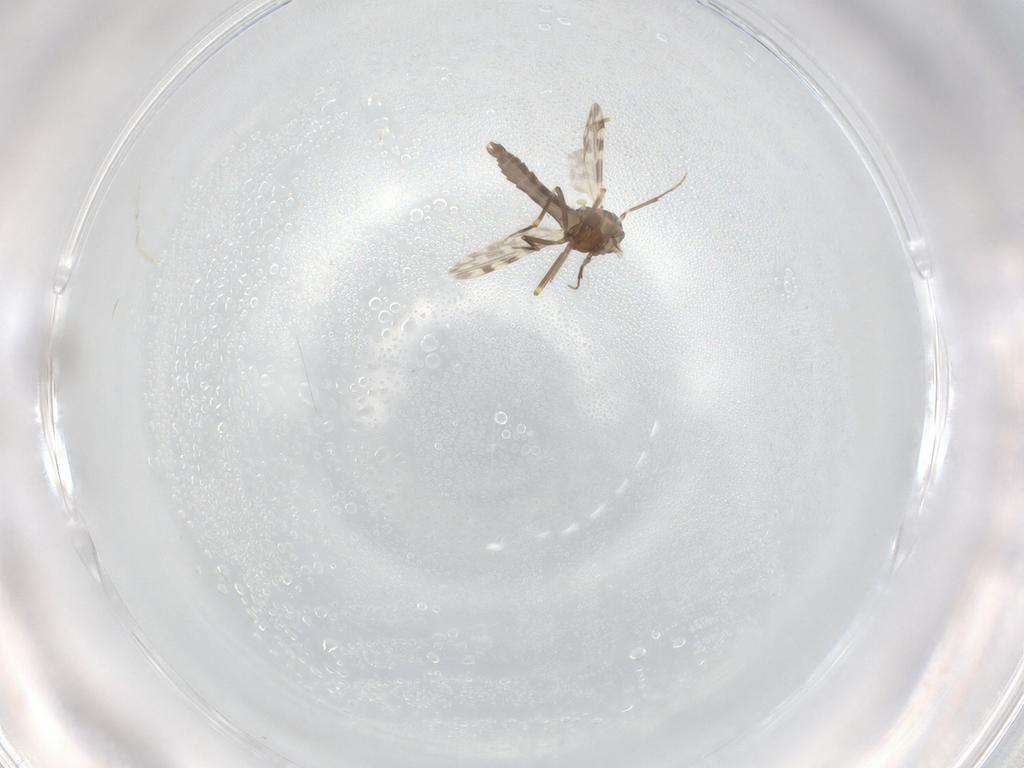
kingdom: Animalia
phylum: Arthropoda
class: Insecta
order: Diptera
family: Ceratopogonidae
